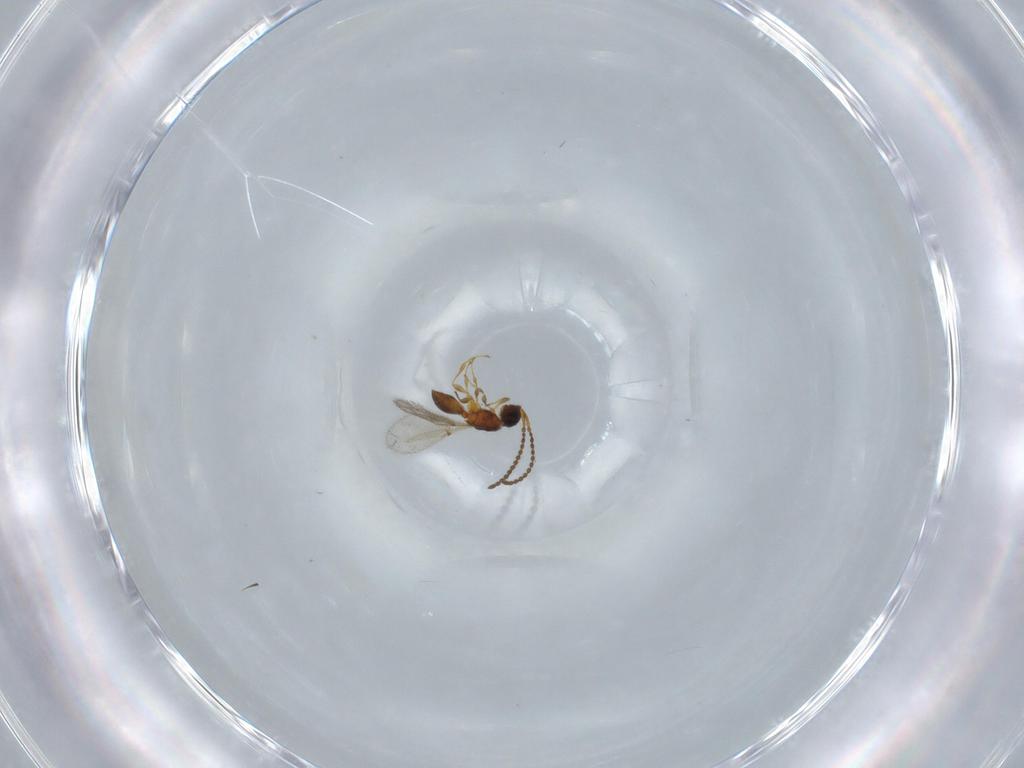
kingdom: Animalia
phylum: Arthropoda
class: Insecta
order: Hymenoptera
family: Diapriidae
